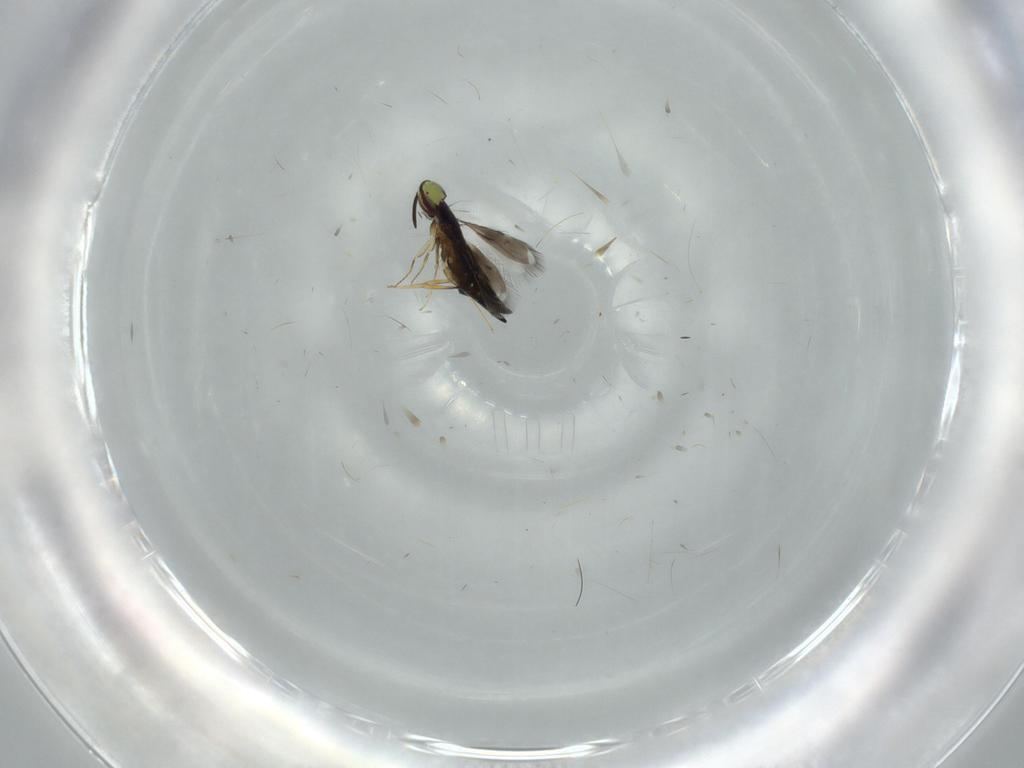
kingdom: Animalia
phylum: Arthropoda
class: Insecta
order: Hymenoptera
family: Signiphoridae
